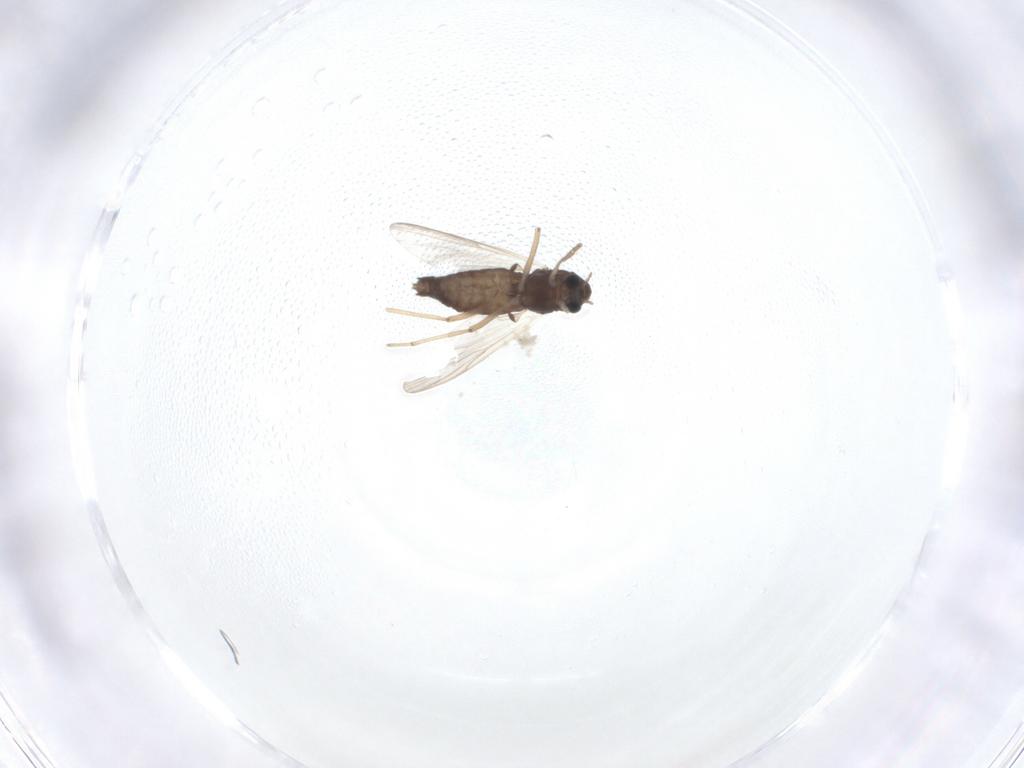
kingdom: Animalia
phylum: Arthropoda
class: Insecta
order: Diptera
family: Chironomidae
